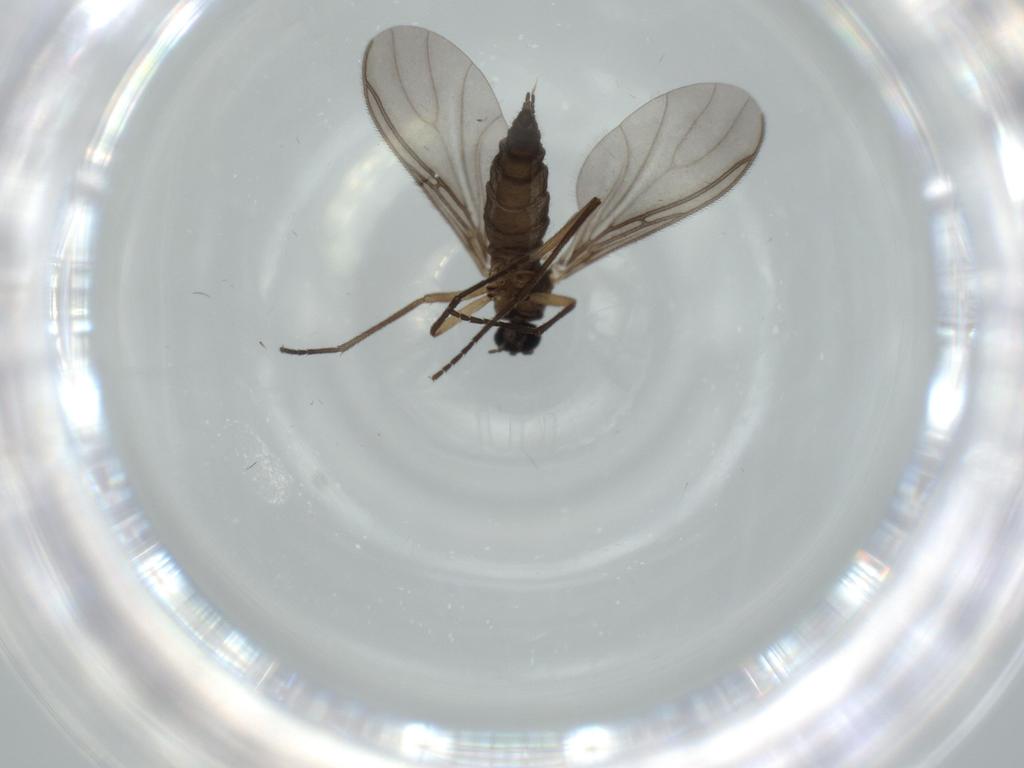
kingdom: Animalia
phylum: Arthropoda
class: Insecta
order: Diptera
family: Sciaridae
